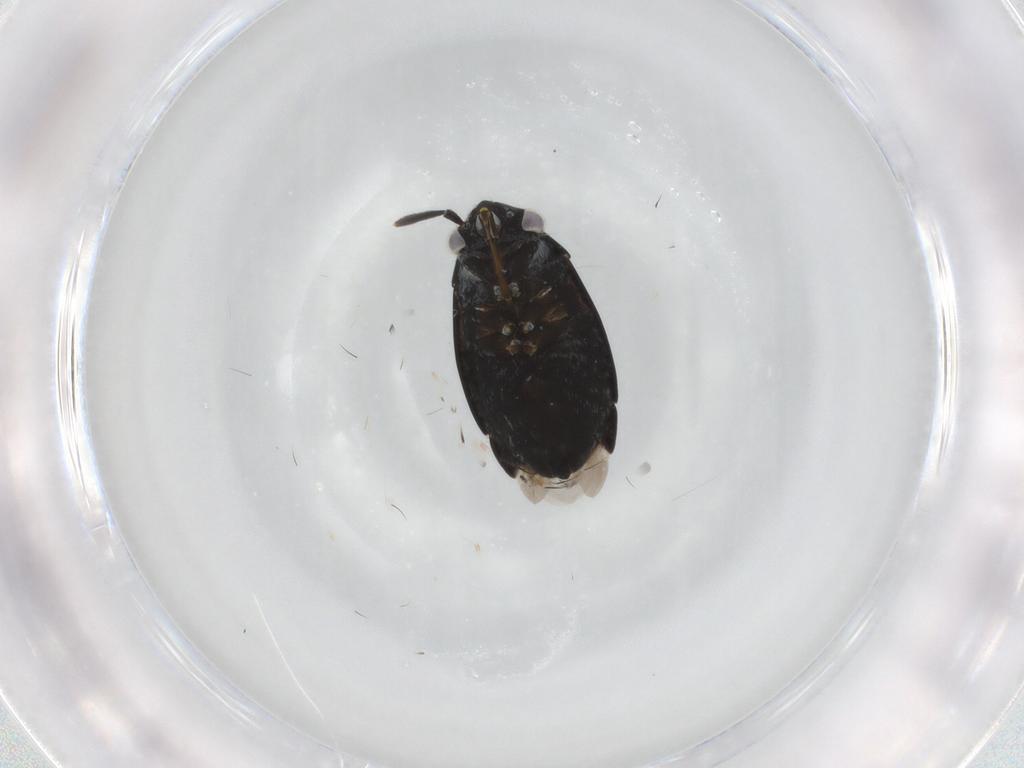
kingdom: Animalia
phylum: Arthropoda
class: Insecta
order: Hemiptera
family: Miridae
